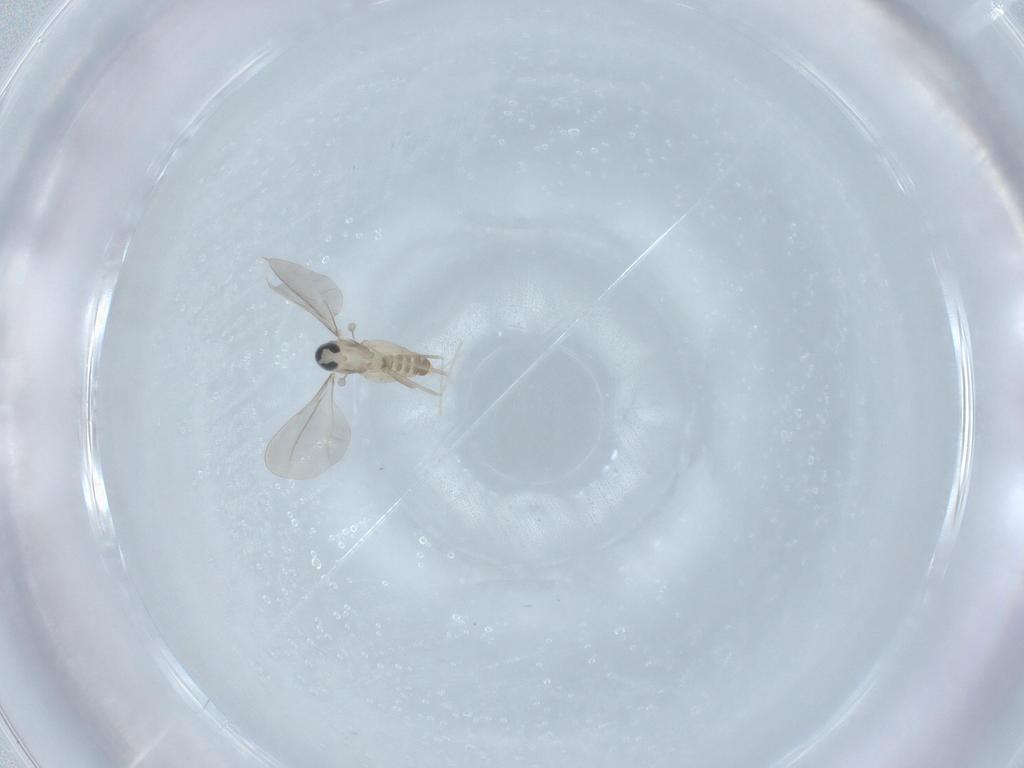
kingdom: Animalia
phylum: Arthropoda
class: Insecta
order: Diptera
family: Cecidomyiidae
